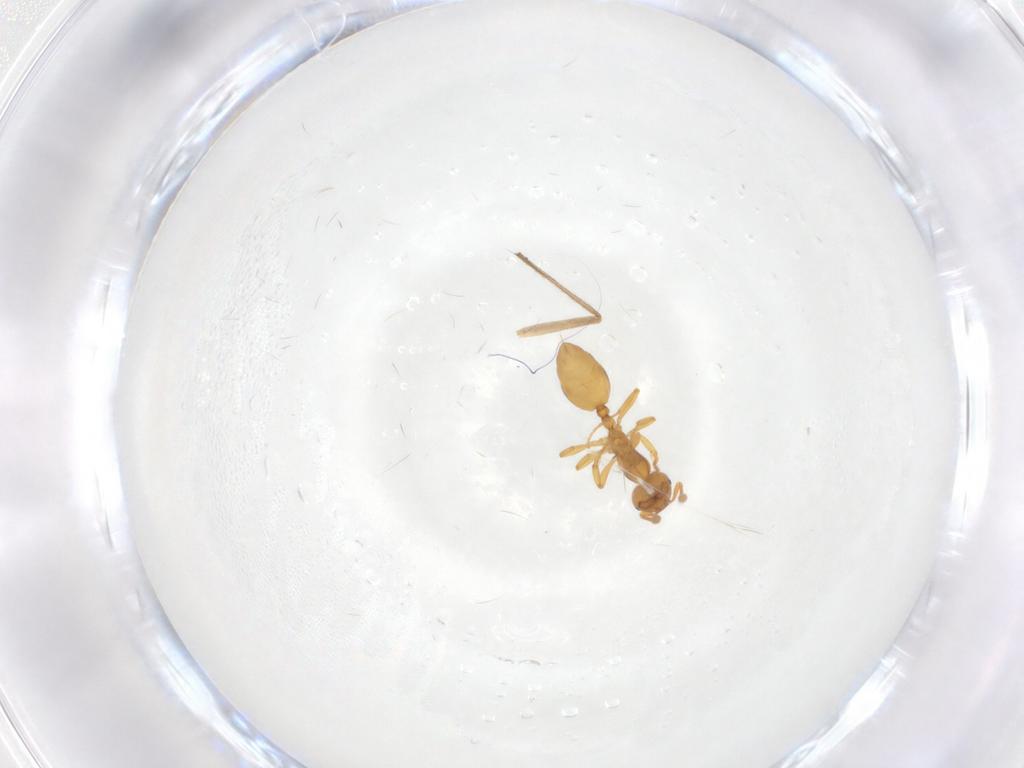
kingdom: Animalia
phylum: Arthropoda
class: Insecta
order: Hymenoptera
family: Formicidae
